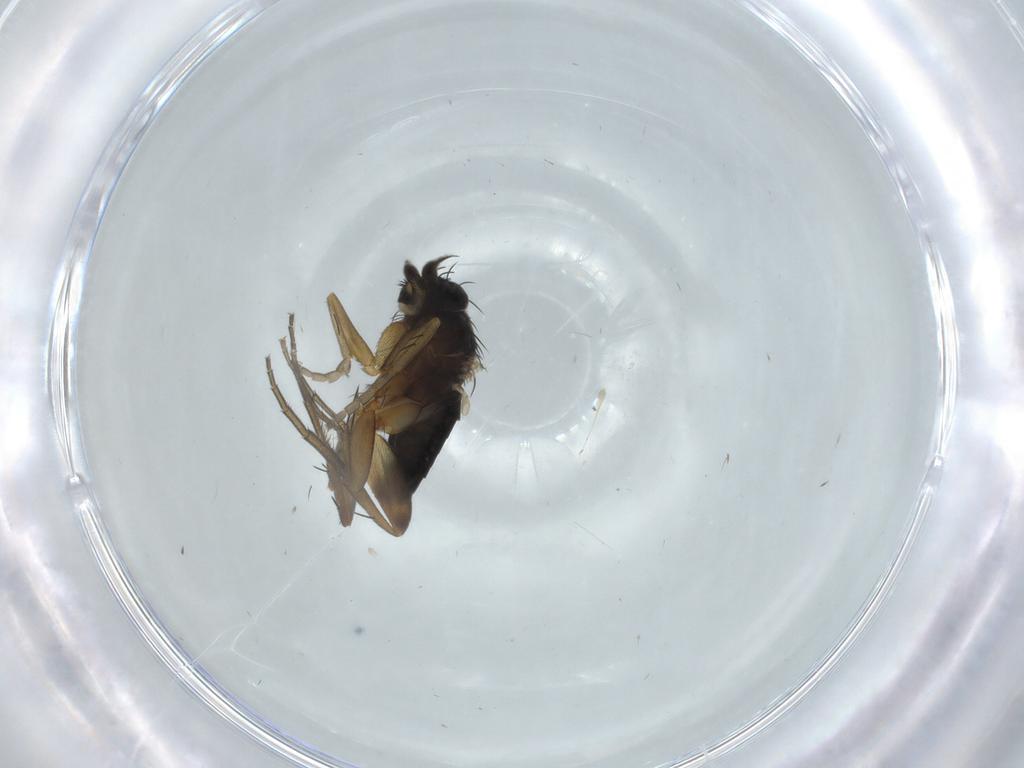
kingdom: Animalia
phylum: Arthropoda
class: Insecta
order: Diptera
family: Phoridae
